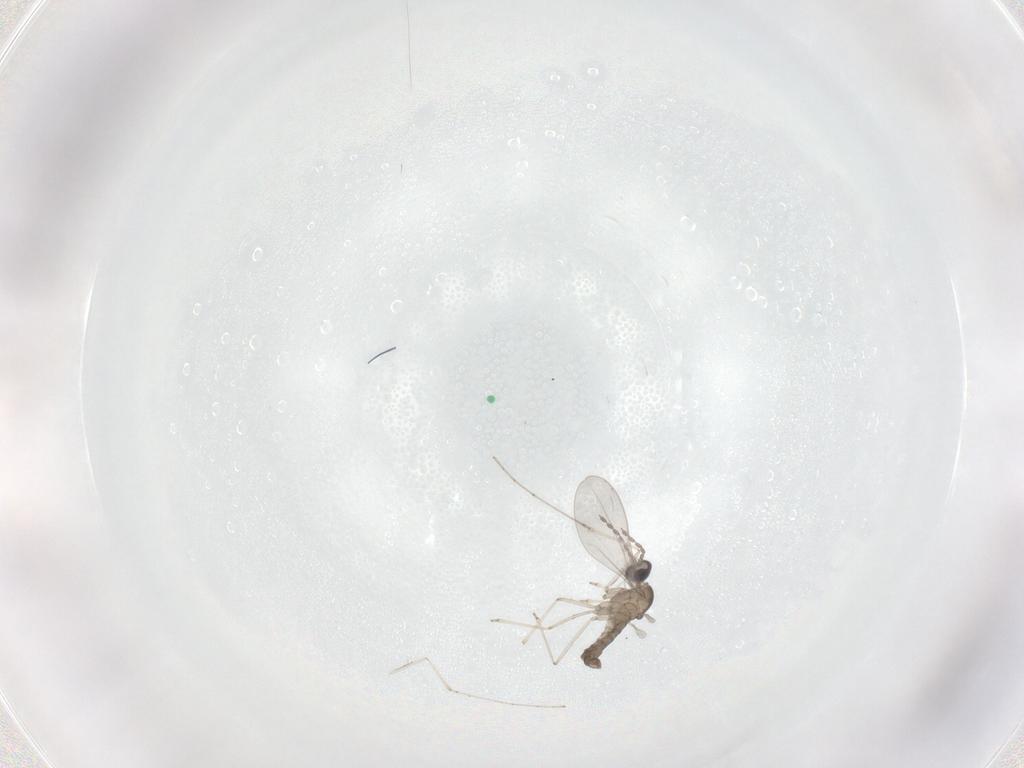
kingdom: Animalia
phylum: Arthropoda
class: Insecta
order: Diptera
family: Cecidomyiidae
